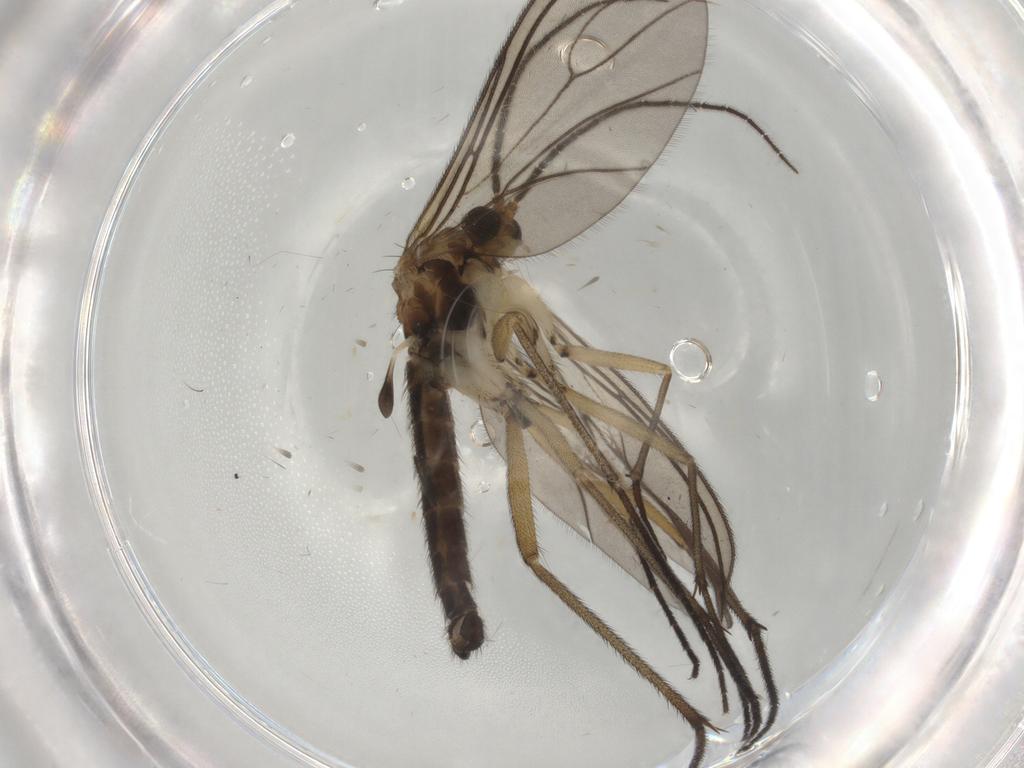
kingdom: Animalia
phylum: Arthropoda
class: Insecta
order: Diptera
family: Sciaridae
